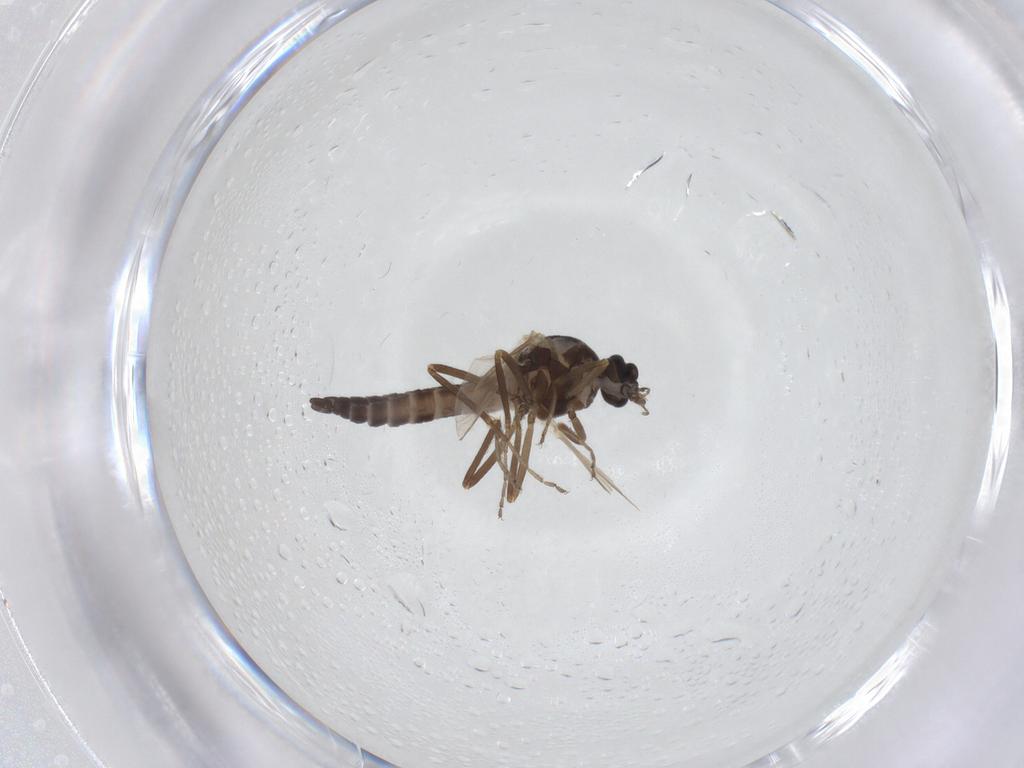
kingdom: Animalia
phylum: Arthropoda
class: Insecta
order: Diptera
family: Ceratopogonidae
